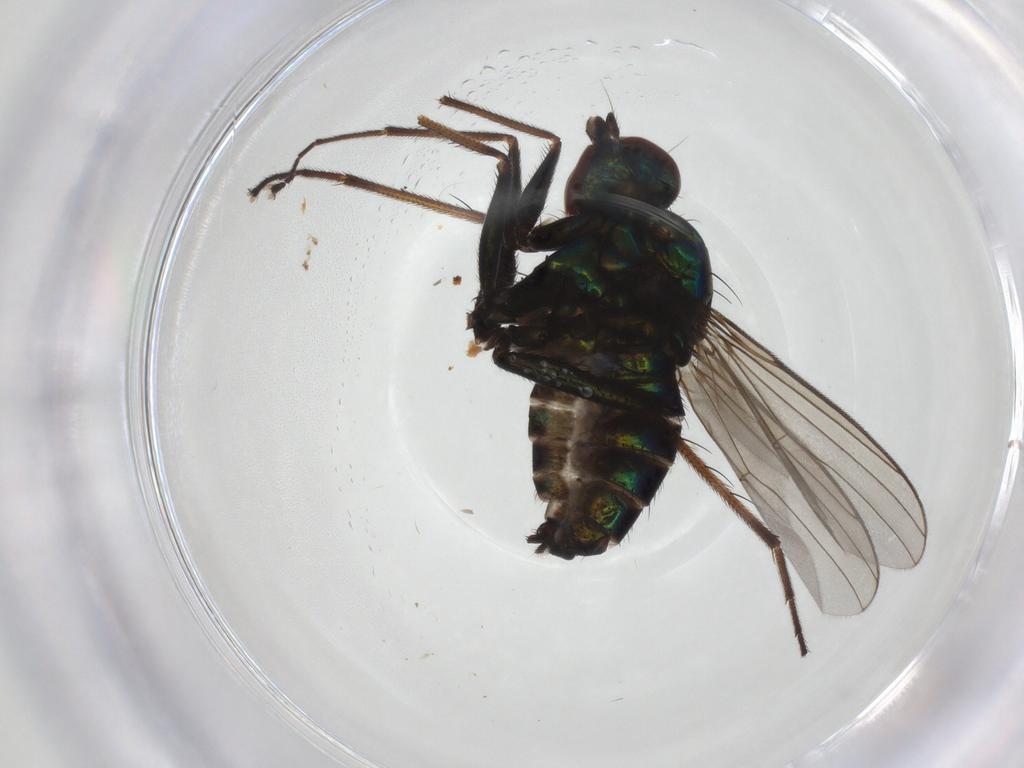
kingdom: Animalia
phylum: Arthropoda
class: Insecta
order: Diptera
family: Dolichopodidae
